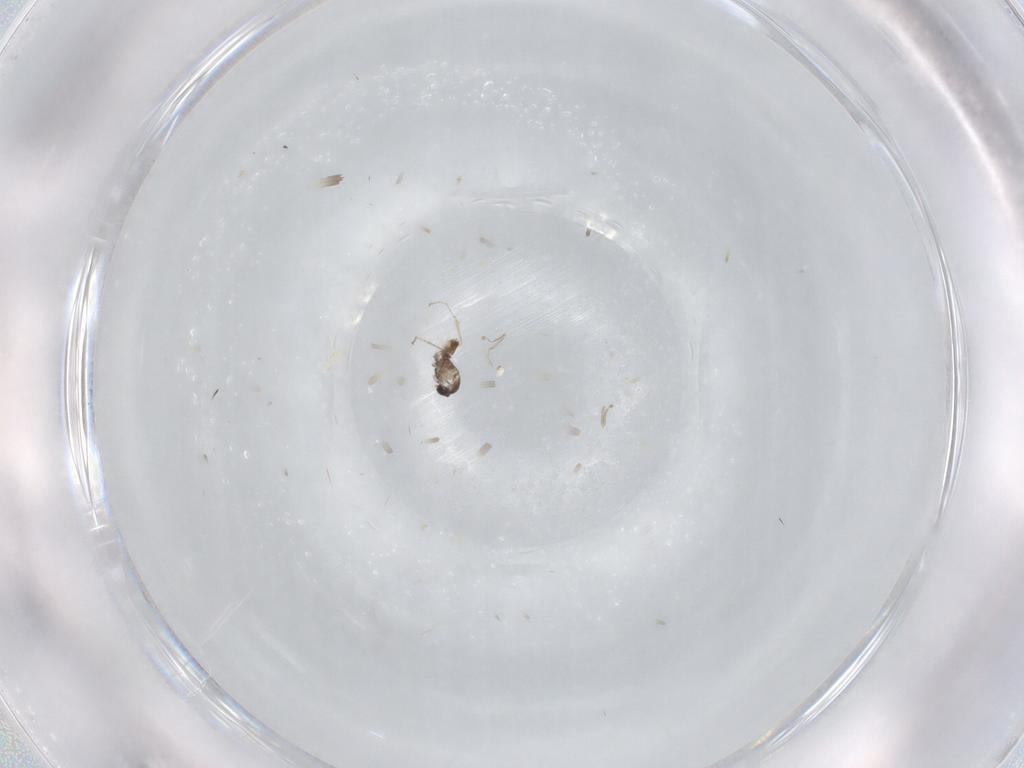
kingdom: Animalia
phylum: Arthropoda
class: Insecta
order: Diptera
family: Cecidomyiidae
